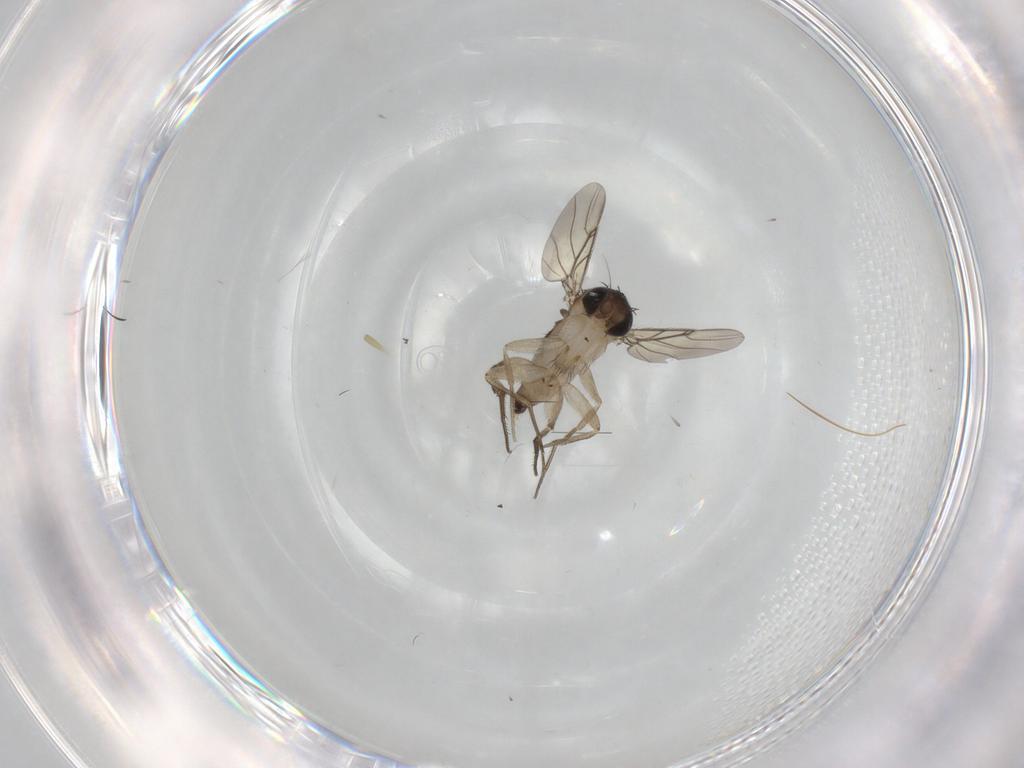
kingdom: Animalia
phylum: Arthropoda
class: Insecta
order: Diptera
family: Phoridae
